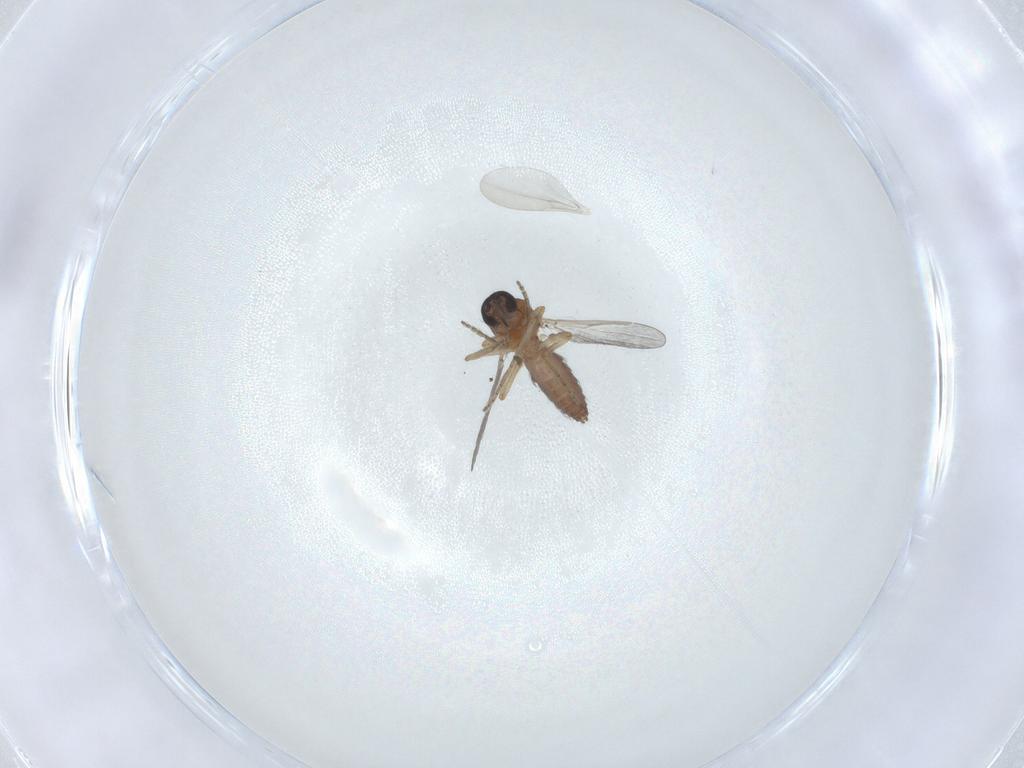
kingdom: Animalia
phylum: Arthropoda
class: Insecta
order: Diptera
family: Ceratopogonidae
